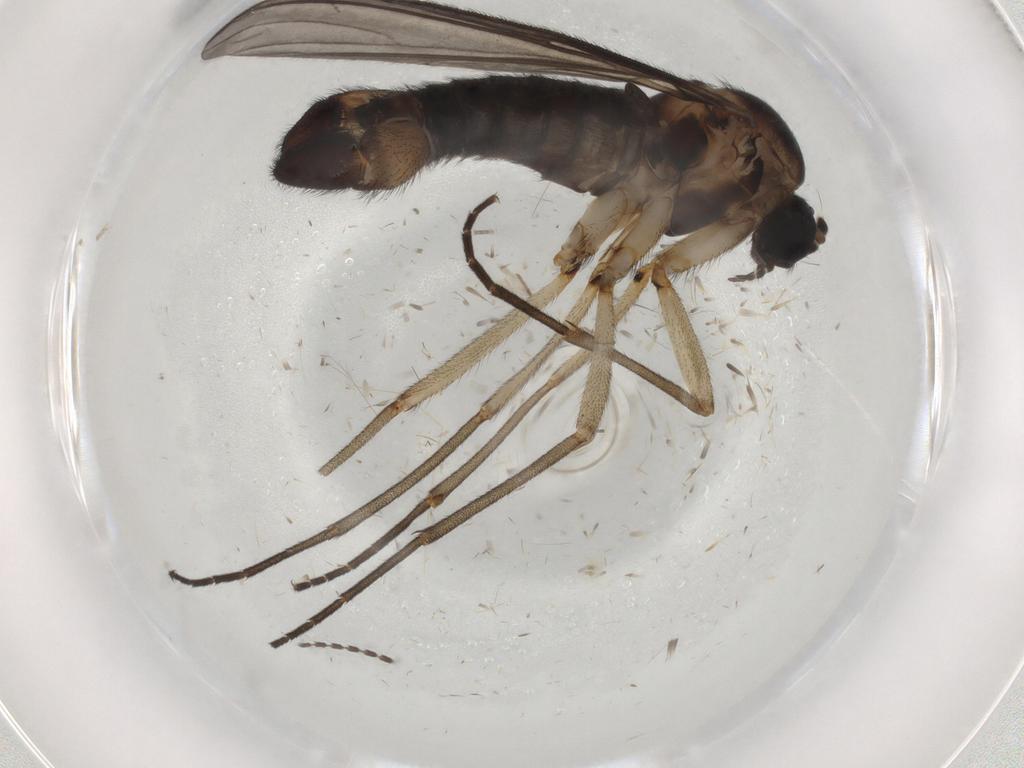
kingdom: Animalia
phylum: Arthropoda
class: Insecta
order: Diptera
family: Sciaridae
